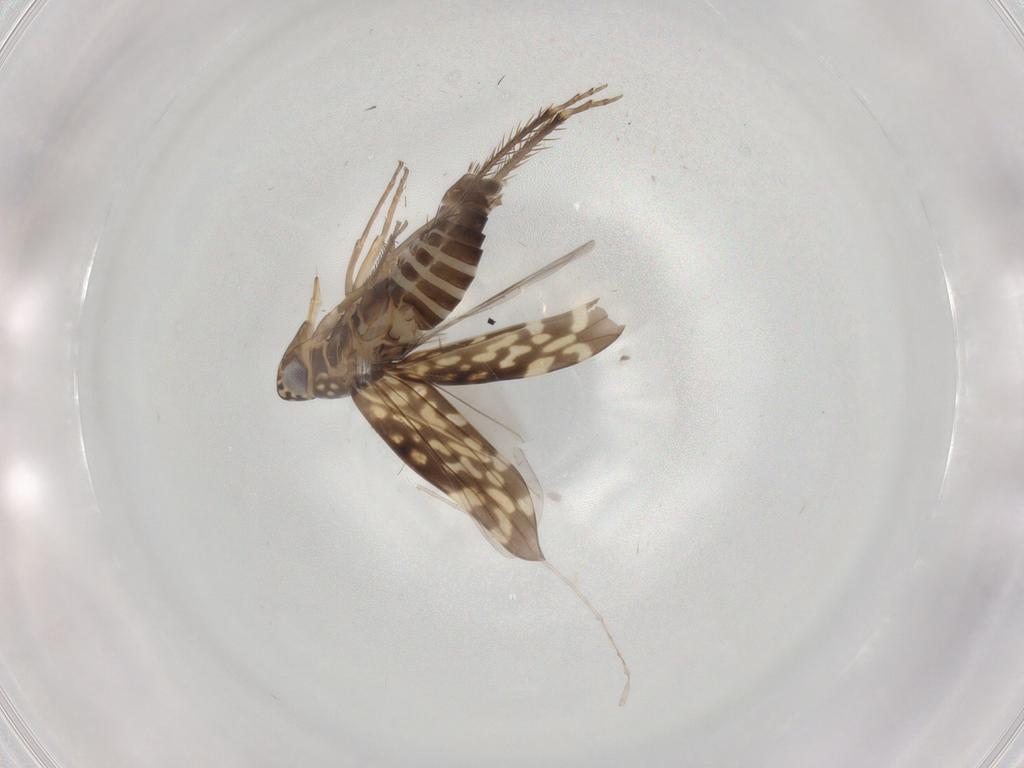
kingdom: Animalia
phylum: Arthropoda
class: Insecta
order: Hemiptera
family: Cicadellidae
